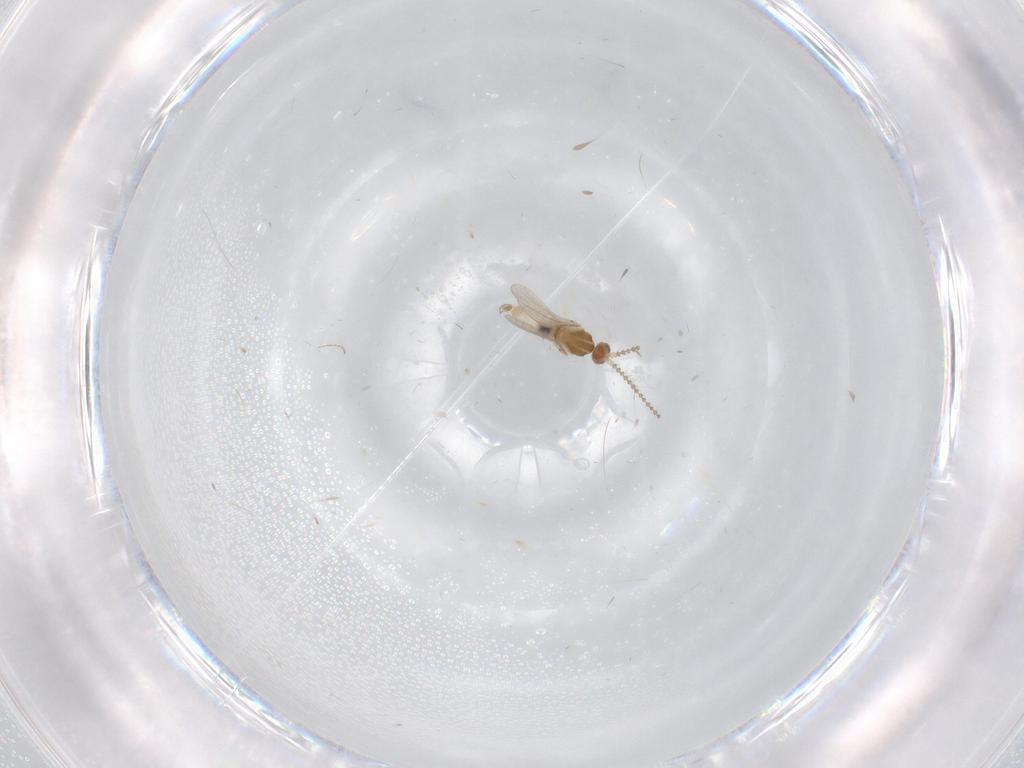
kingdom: Animalia
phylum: Arthropoda
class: Insecta
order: Diptera
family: Cecidomyiidae
